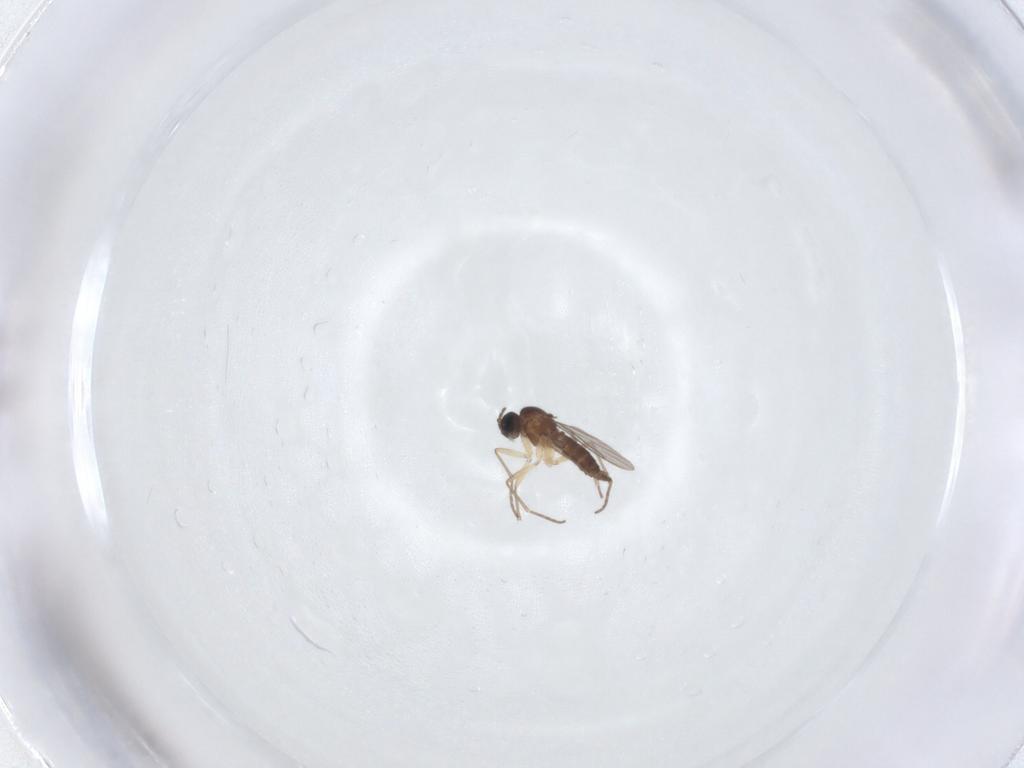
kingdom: Animalia
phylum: Arthropoda
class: Insecta
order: Diptera
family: Sciaridae
